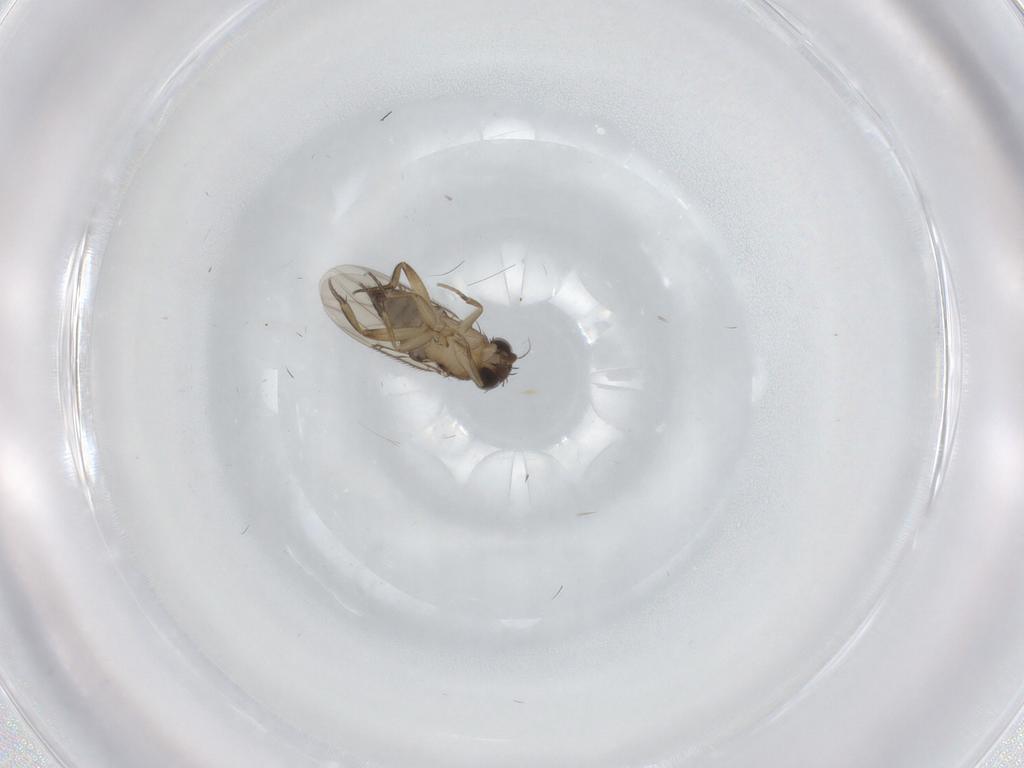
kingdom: Animalia
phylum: Arthropoda
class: Insecta
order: Diptera
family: Phoridae
